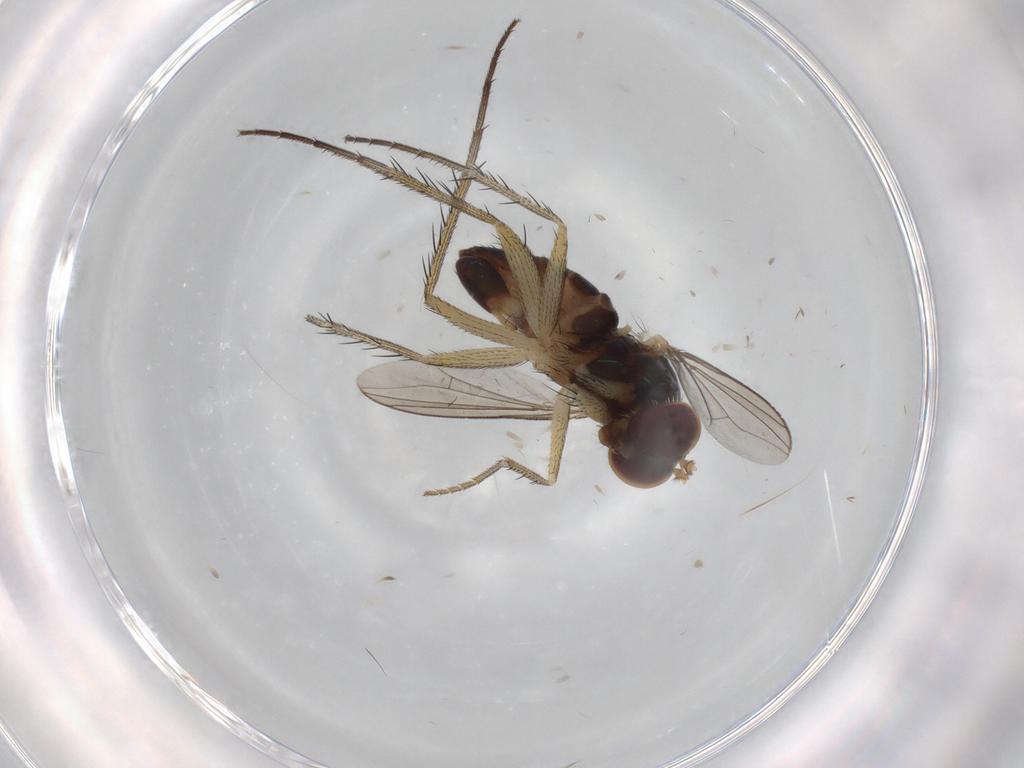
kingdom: Animalia
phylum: Arthropoda
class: Insecta
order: Diptera
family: Dolichopodidae
